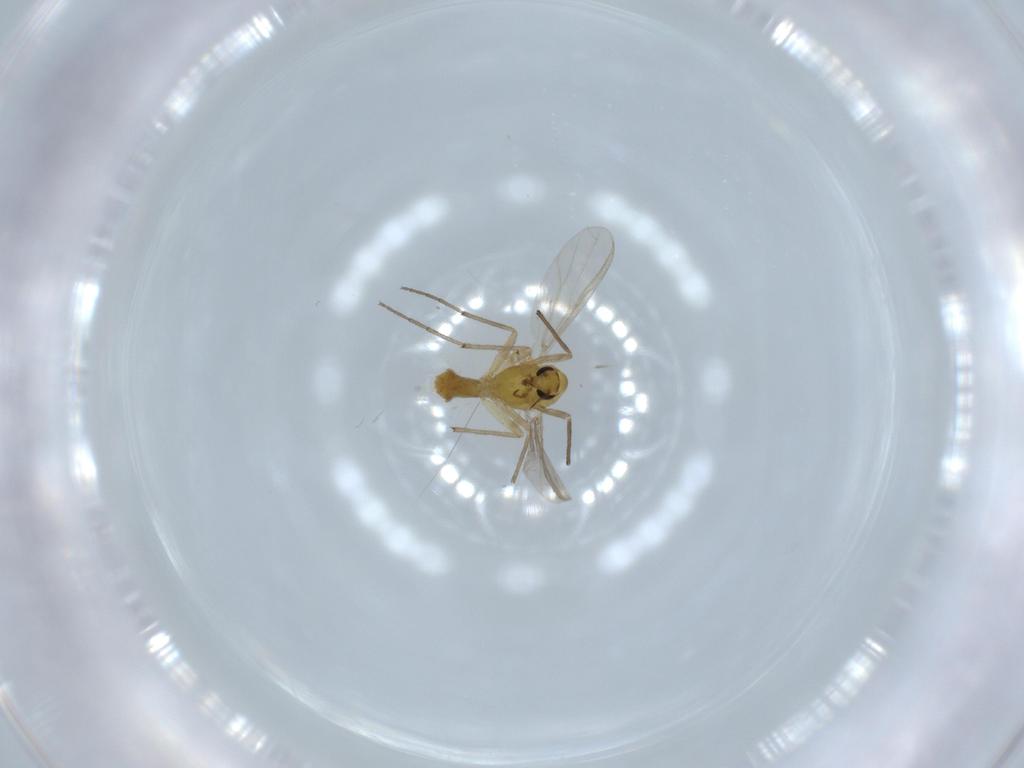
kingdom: Animalia
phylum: Arthropoda
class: Insecta
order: Diptera
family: Chironomidae
